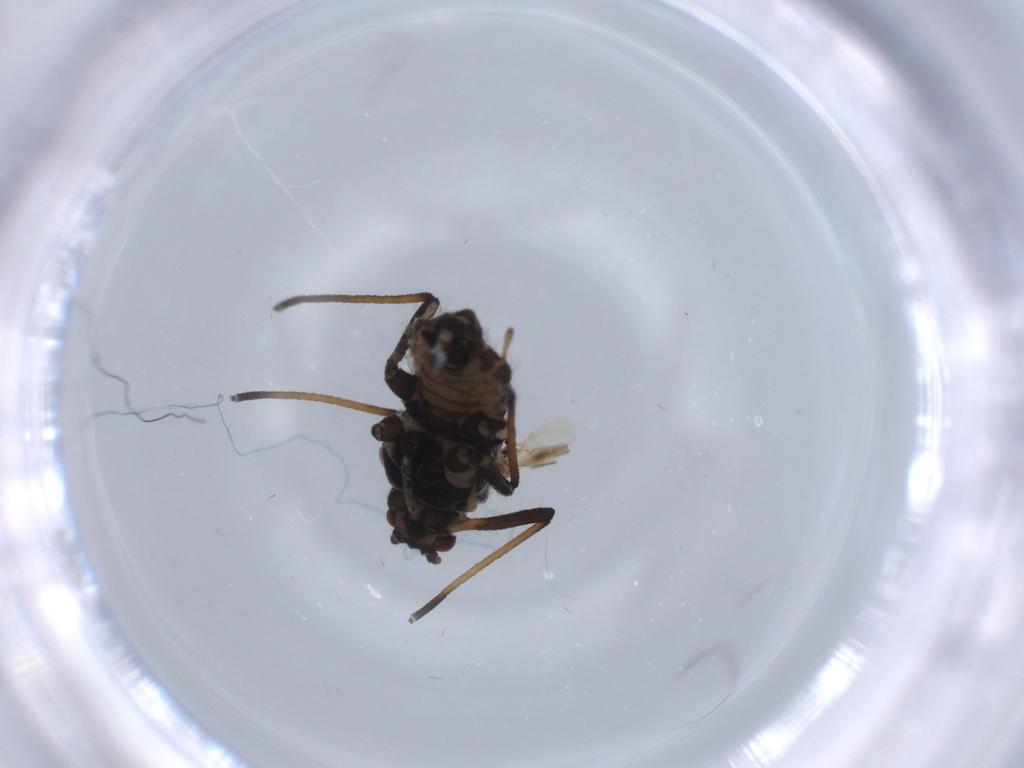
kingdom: Animalia
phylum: Arthropoda
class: Insecta
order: Hemiptera
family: Aphididae
